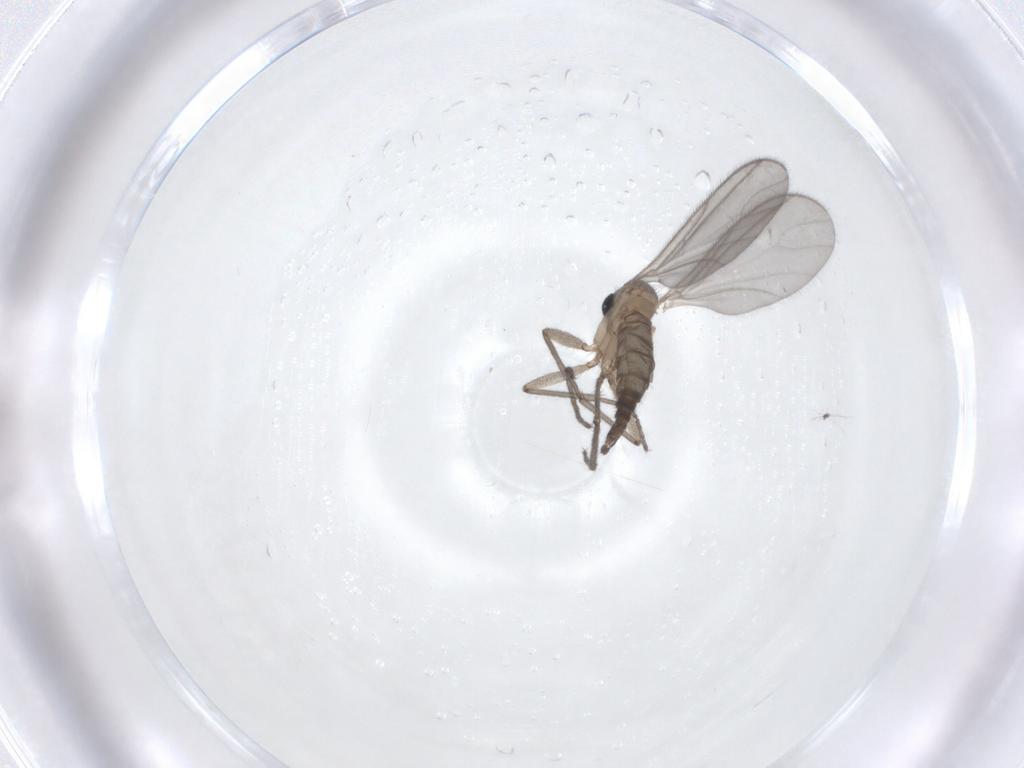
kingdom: Animalia
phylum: Arthropoda
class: Insecta
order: Diptera
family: Sciaridae
